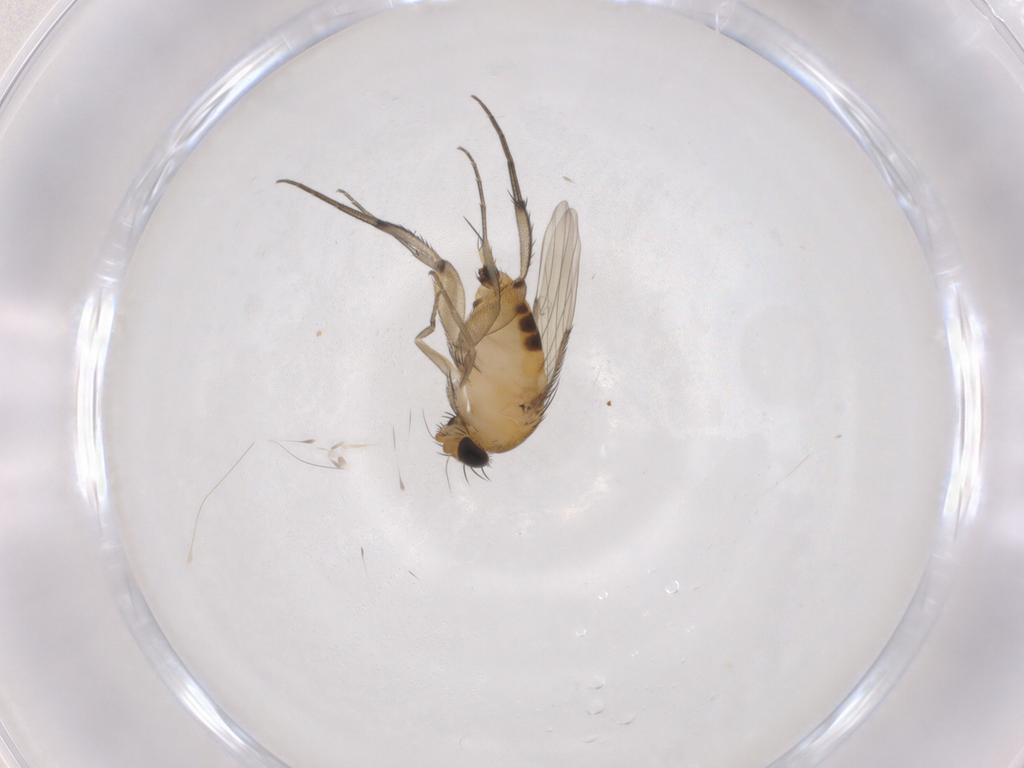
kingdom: Animalia
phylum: Arthropoda
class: Insecta
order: Diptera
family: Phoridae
